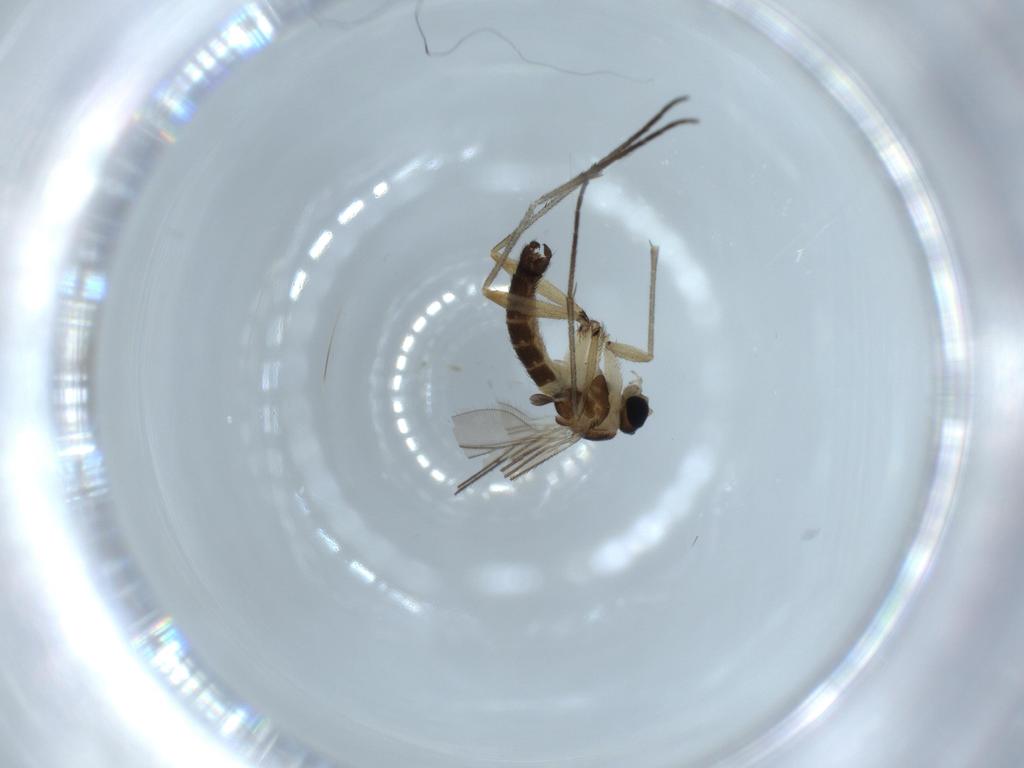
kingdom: Animalia
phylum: Arthropoda
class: Insecta
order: Diptera
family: Sciaridae
